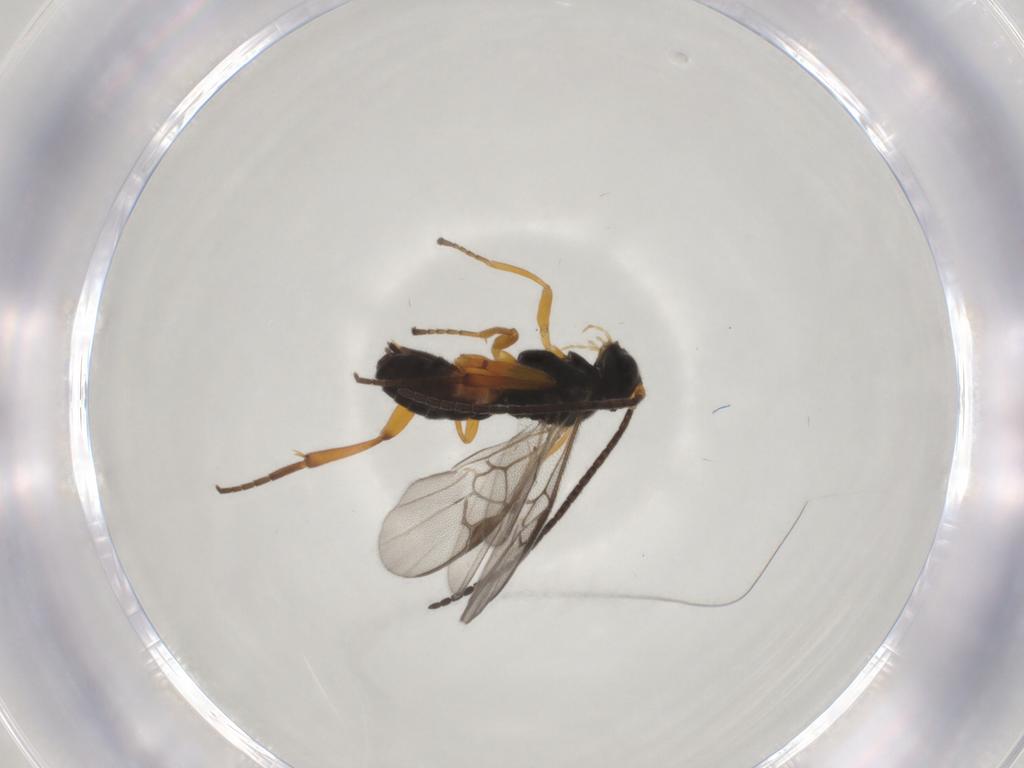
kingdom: Animalia
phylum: Arthropoda
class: Insecta
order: Hymenoptera
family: Braconidae
